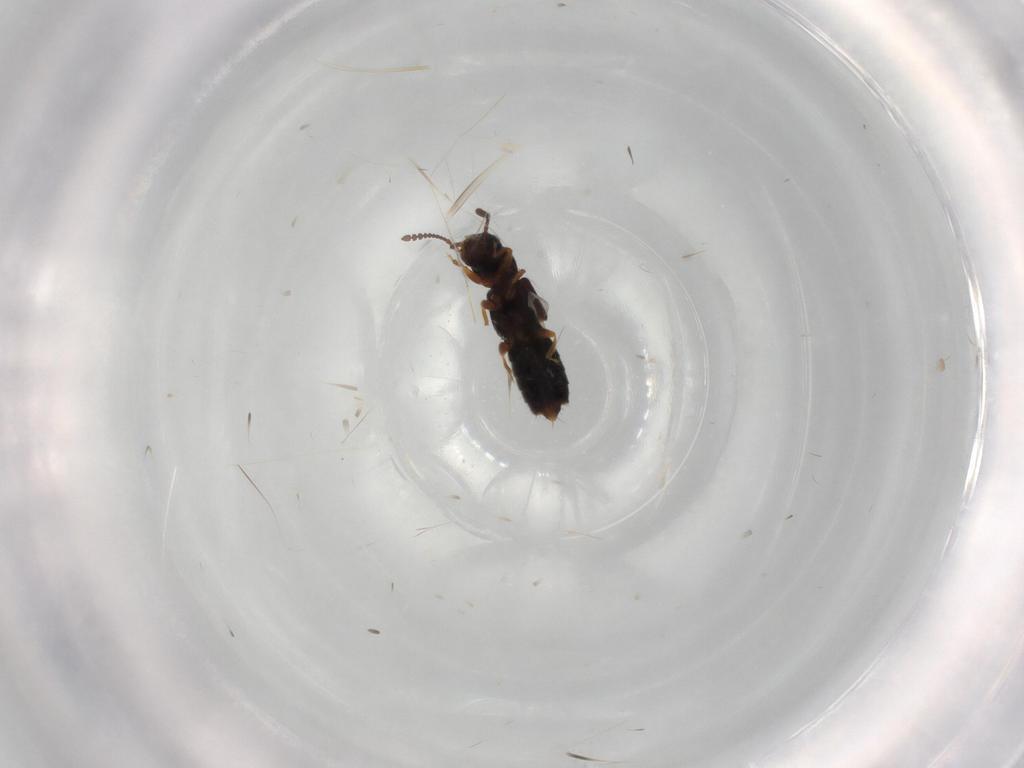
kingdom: Animalia
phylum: Arthropoda
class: Insecta
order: Coleoptera
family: Staphylinidae
